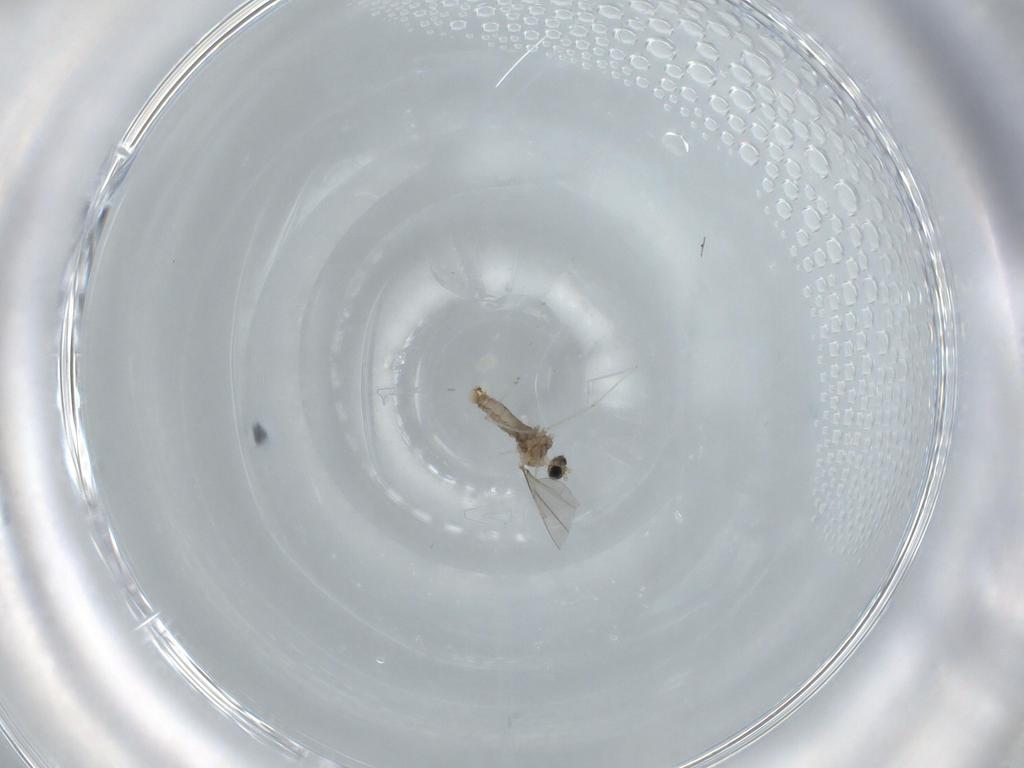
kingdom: Animalia
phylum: Arthropoda
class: Insecta
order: Diptera
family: Cecidomyiidae
